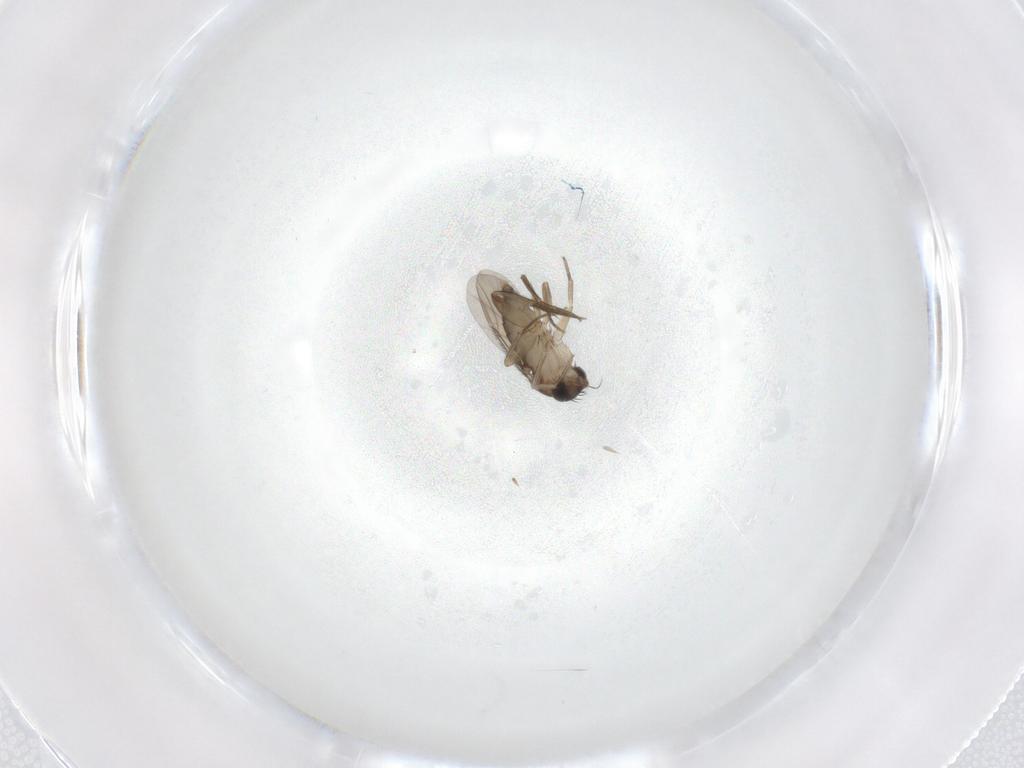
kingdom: Animalia
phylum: Arthropoda
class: Insecta
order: Diptera
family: Phoridae
